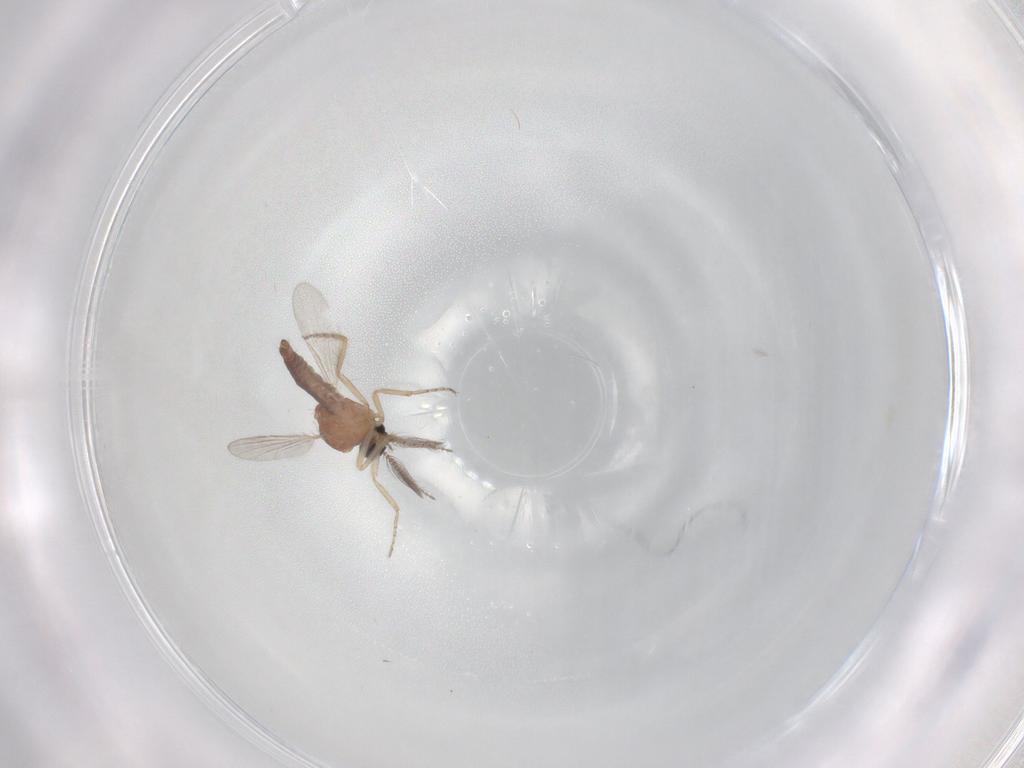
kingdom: Animalia
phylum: Arthropoda
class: Insecta
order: Diptera
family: Ceratopogonidae
